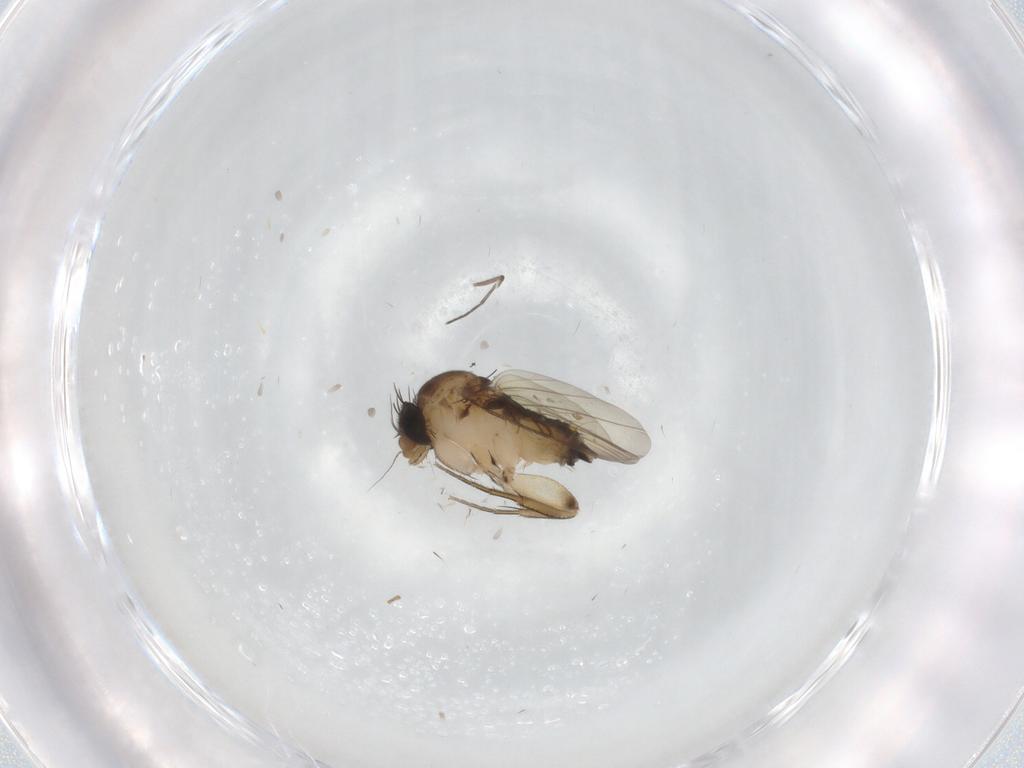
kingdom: Animalia
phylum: Arthropoda
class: Insecta
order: Diptera
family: Phoridae
